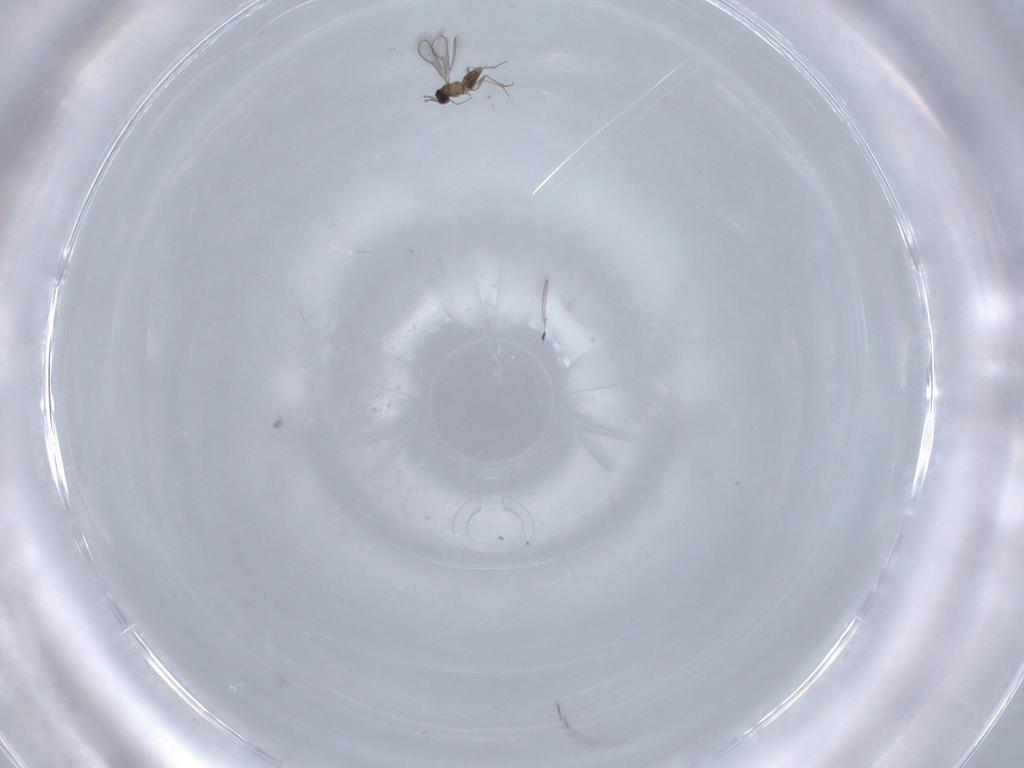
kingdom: Animalia
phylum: Arthropoda
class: Insecta
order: Hymenoptera
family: Mymaridae
